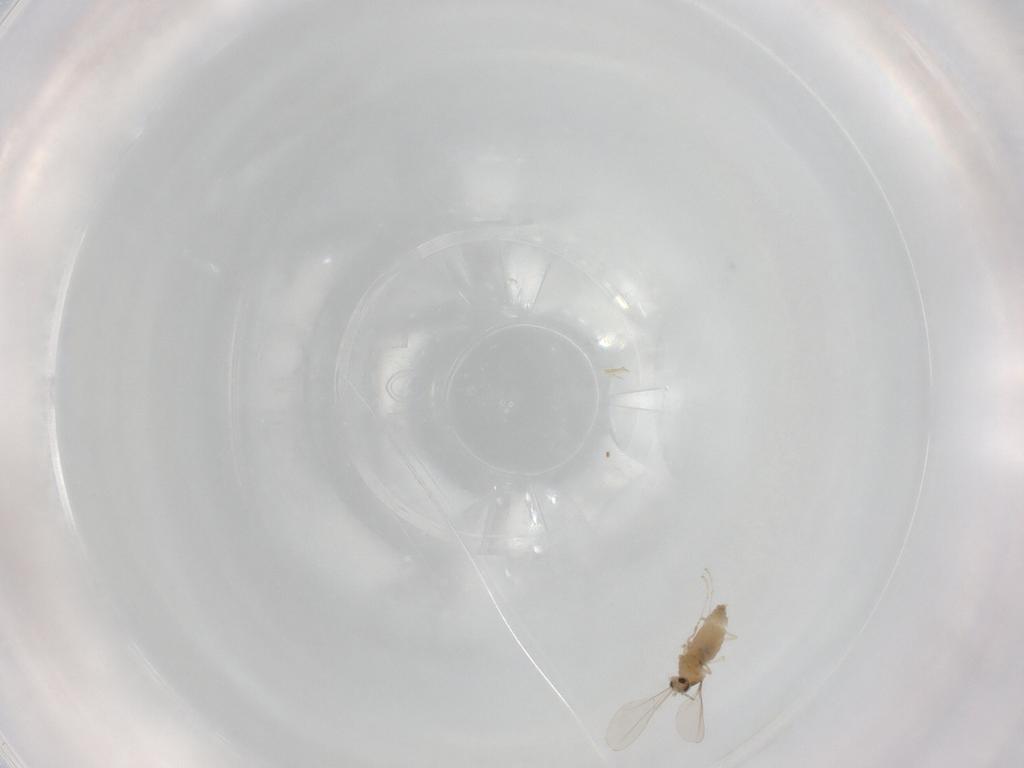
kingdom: Animalia
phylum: Arthropoda
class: Insecta
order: Diptera
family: Cecidomyiidae
